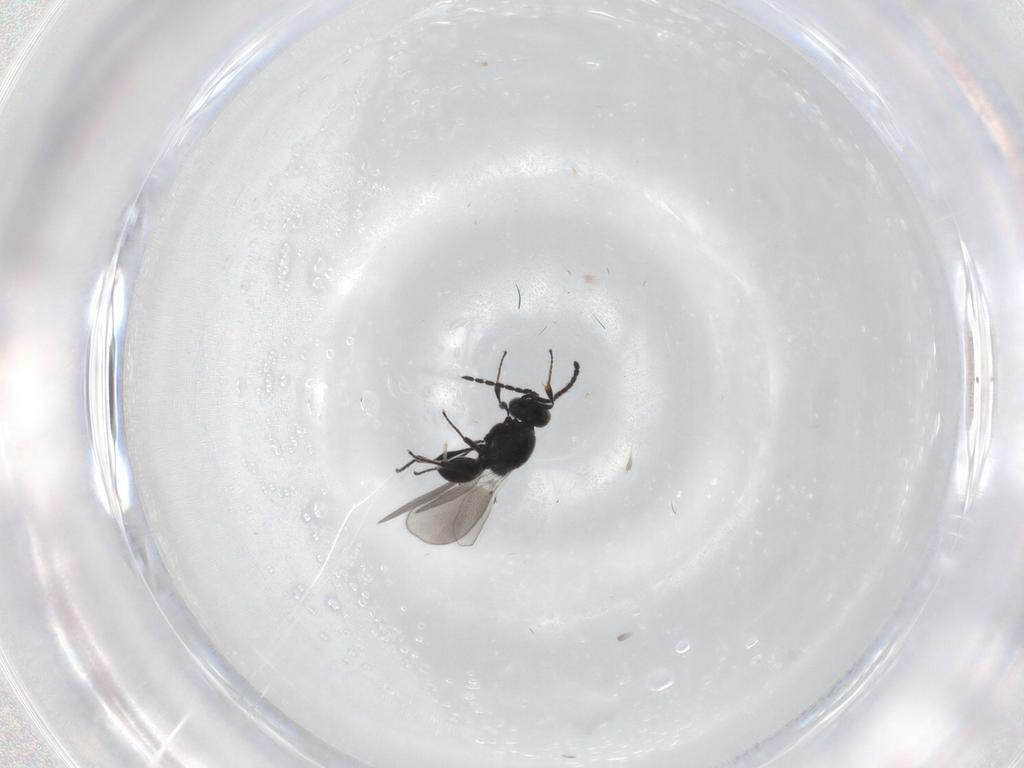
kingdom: Animalia
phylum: Arthropoda
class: Insecta
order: Diptera
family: Mythicomyiidae
